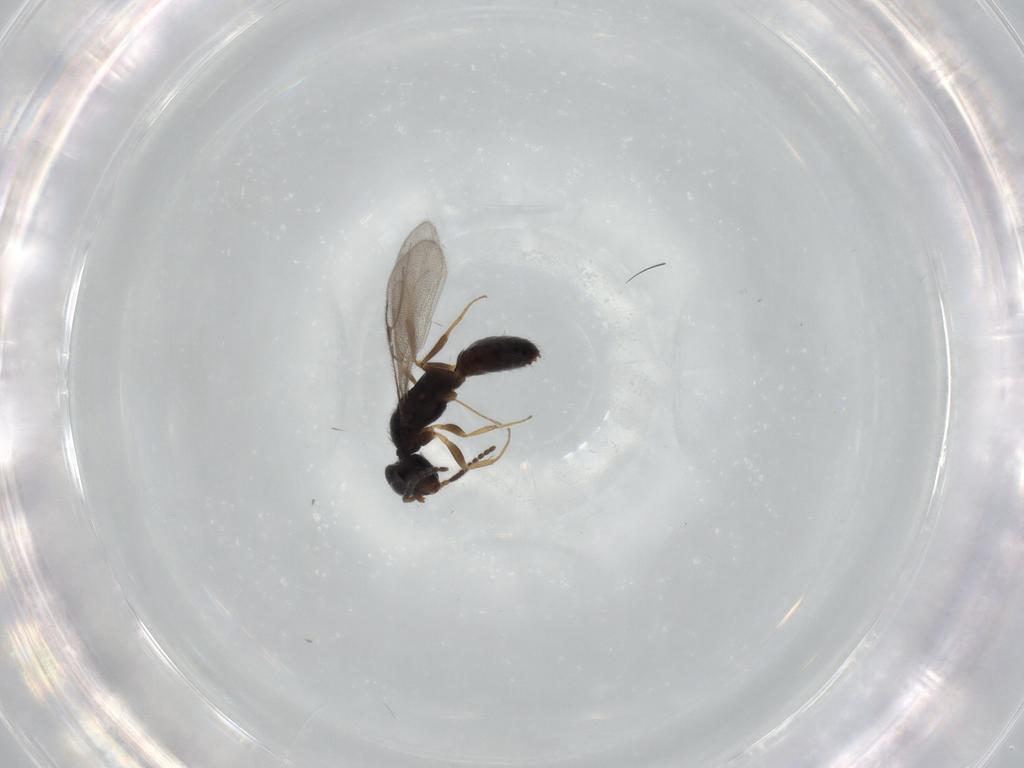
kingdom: Animalia
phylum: Arthropoda
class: Insecta
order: Hymenoptera
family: Bethylidae
